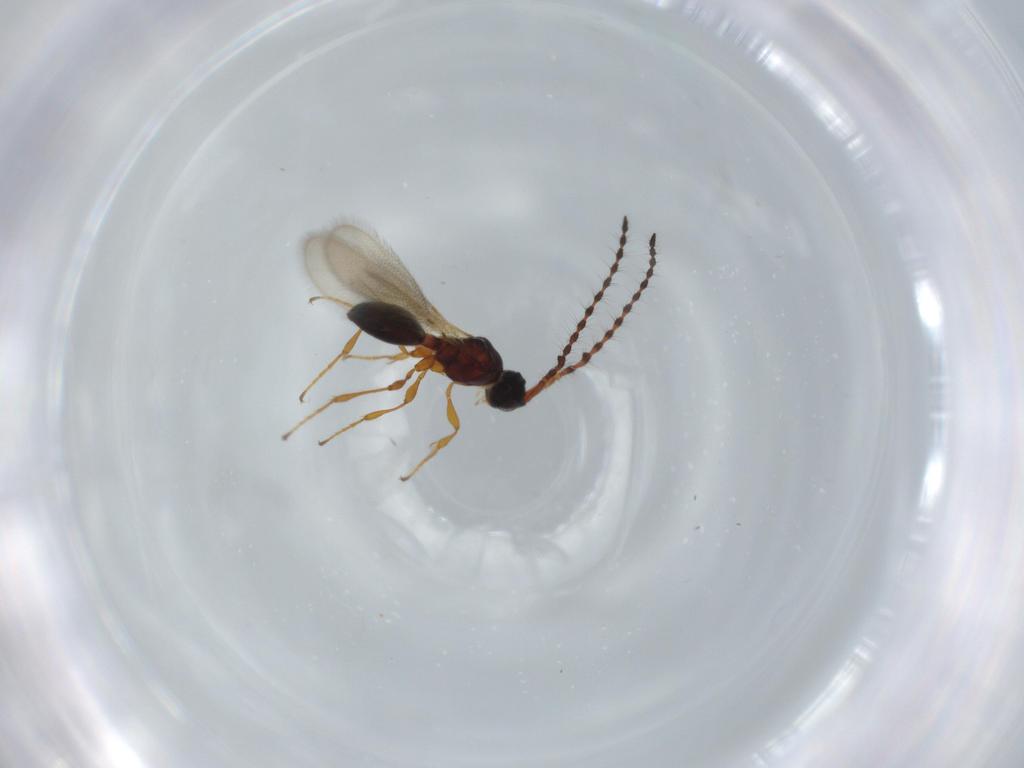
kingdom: Animalia
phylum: Arthropoda
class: Insecta
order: Hymenoptera
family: Diapriidae
